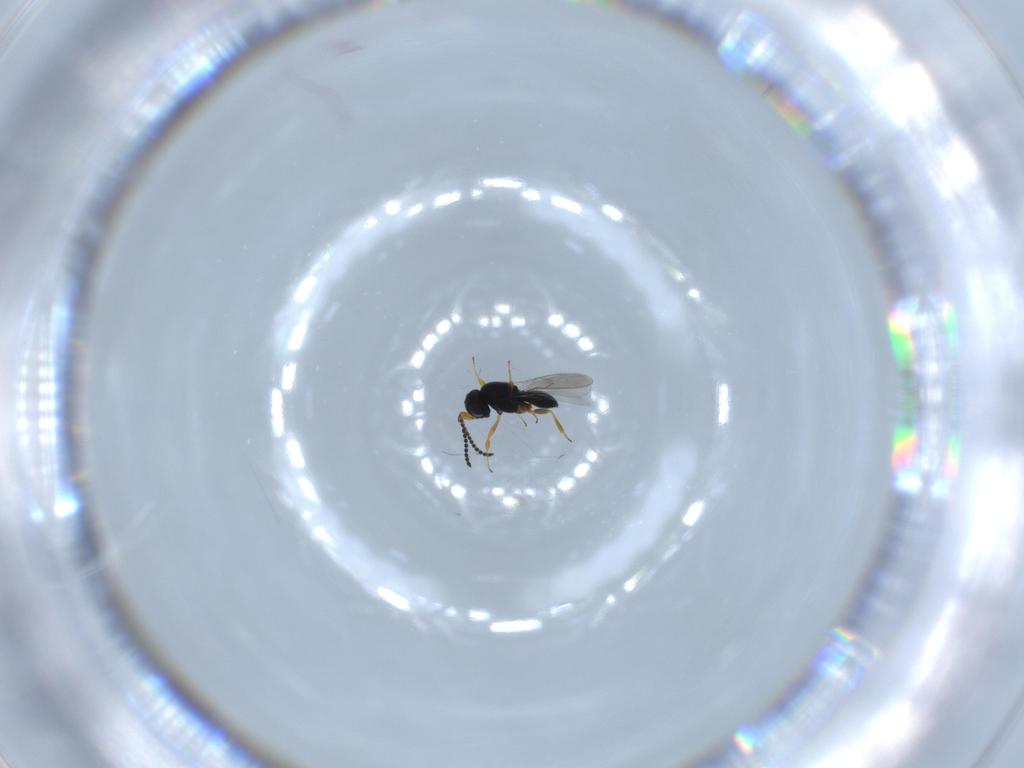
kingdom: Animalia
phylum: Arthropoda
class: Insecta
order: Hymenoptera
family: Scelionidae
